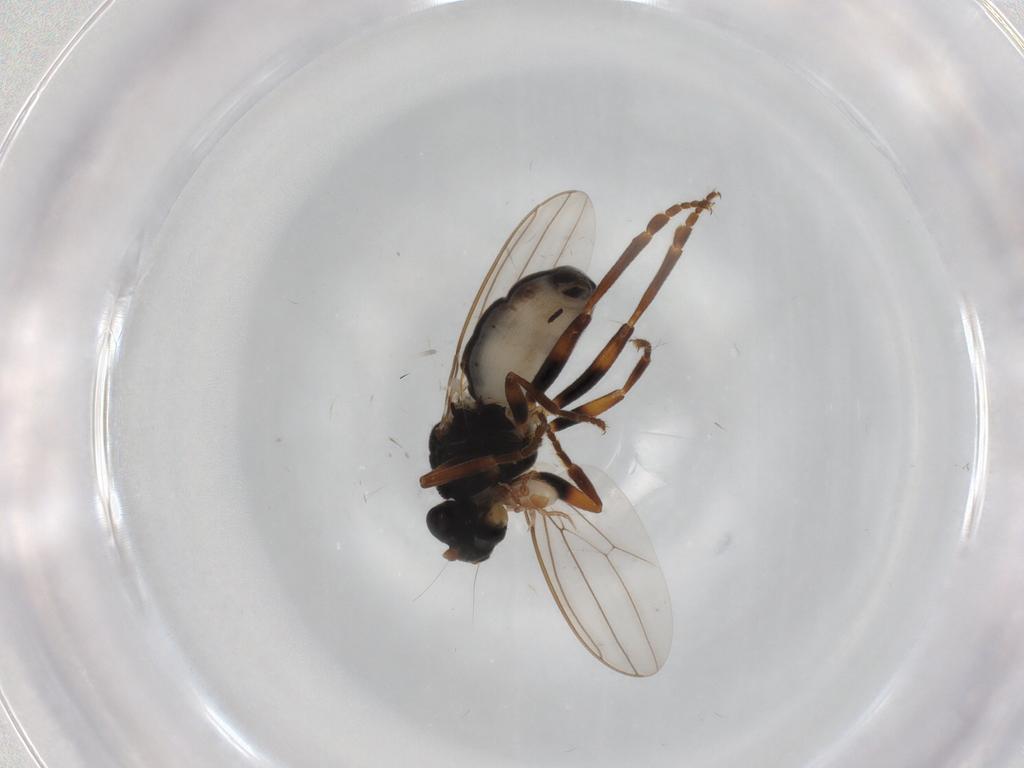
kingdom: Animalia
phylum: Arthropoda
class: Insecta
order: Diptera
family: Sphaeroceridae
